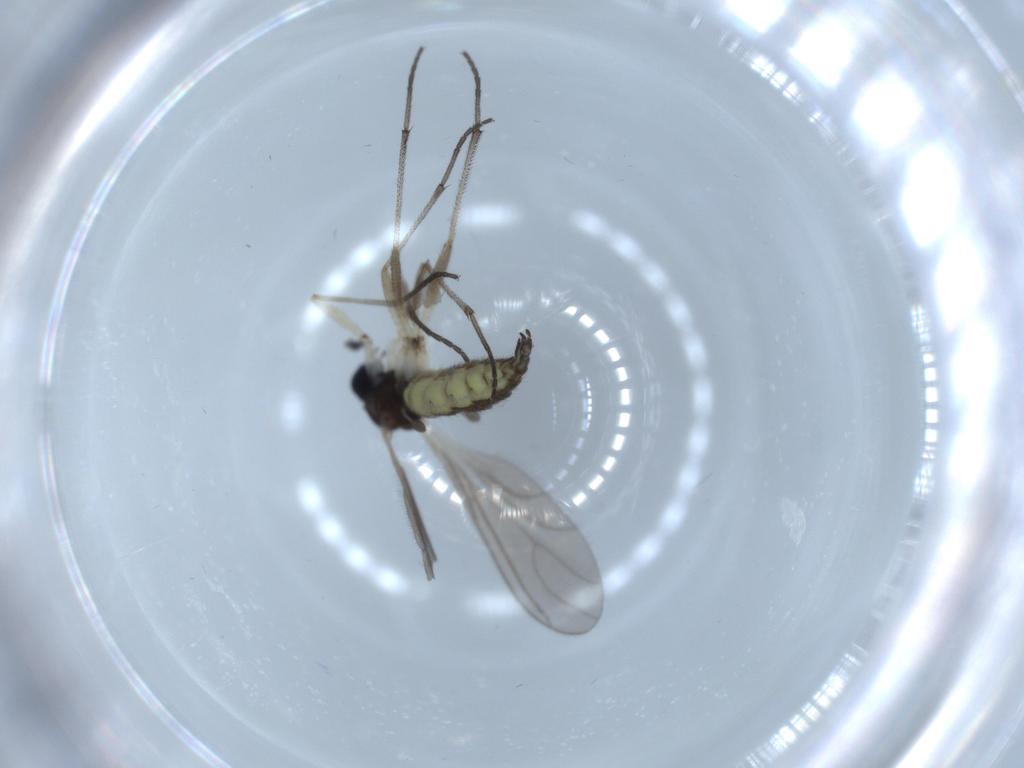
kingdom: Animalia
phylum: Arthropoda
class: Insecta
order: Diptera
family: Sciaridae
